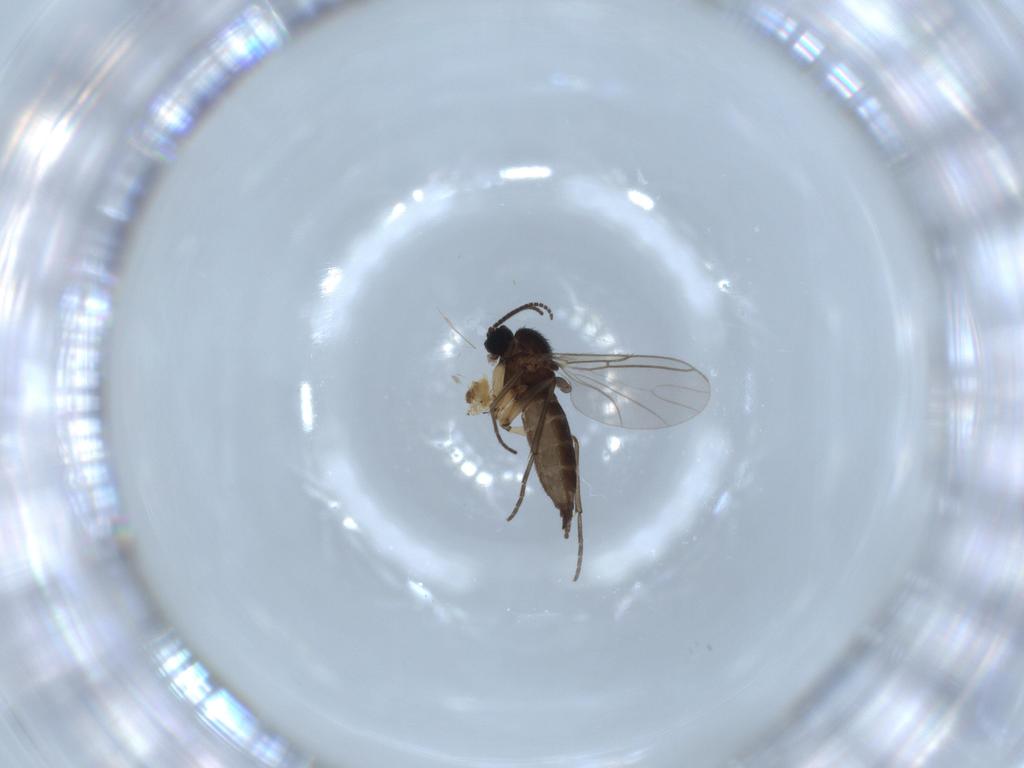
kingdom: Animalia
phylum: Arthropoda
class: Insecta
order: Diptera
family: Sciaridae
